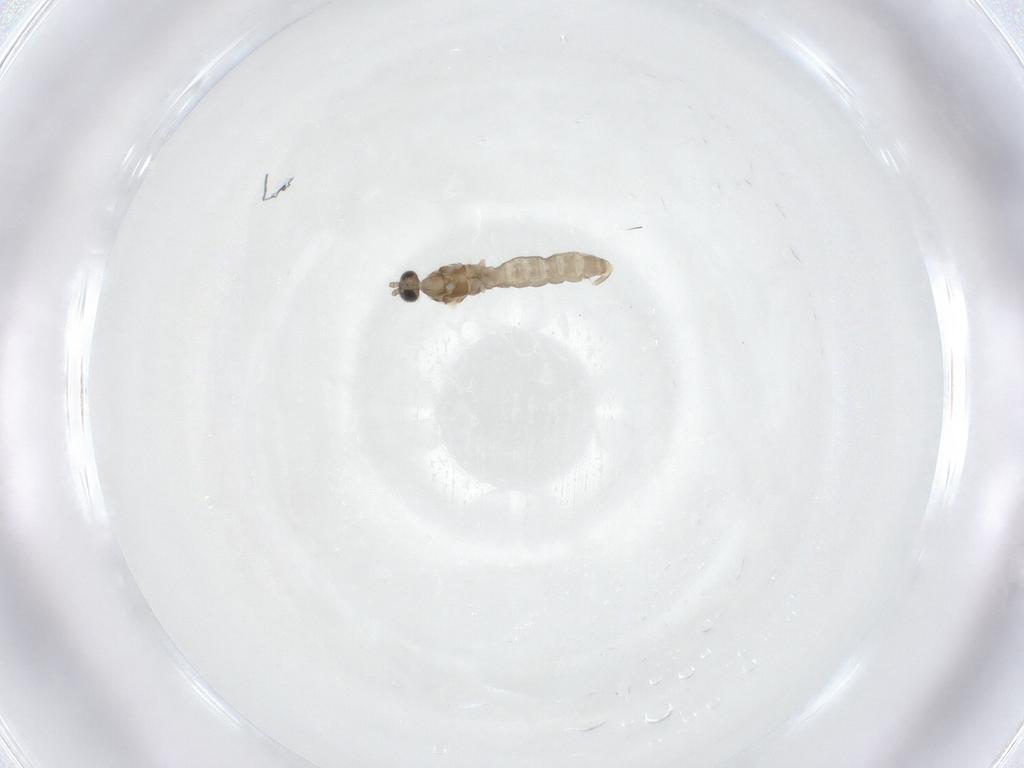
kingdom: Animalia
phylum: Arthropoda
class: Insecta
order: Diptera
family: Cecidomyiidae
